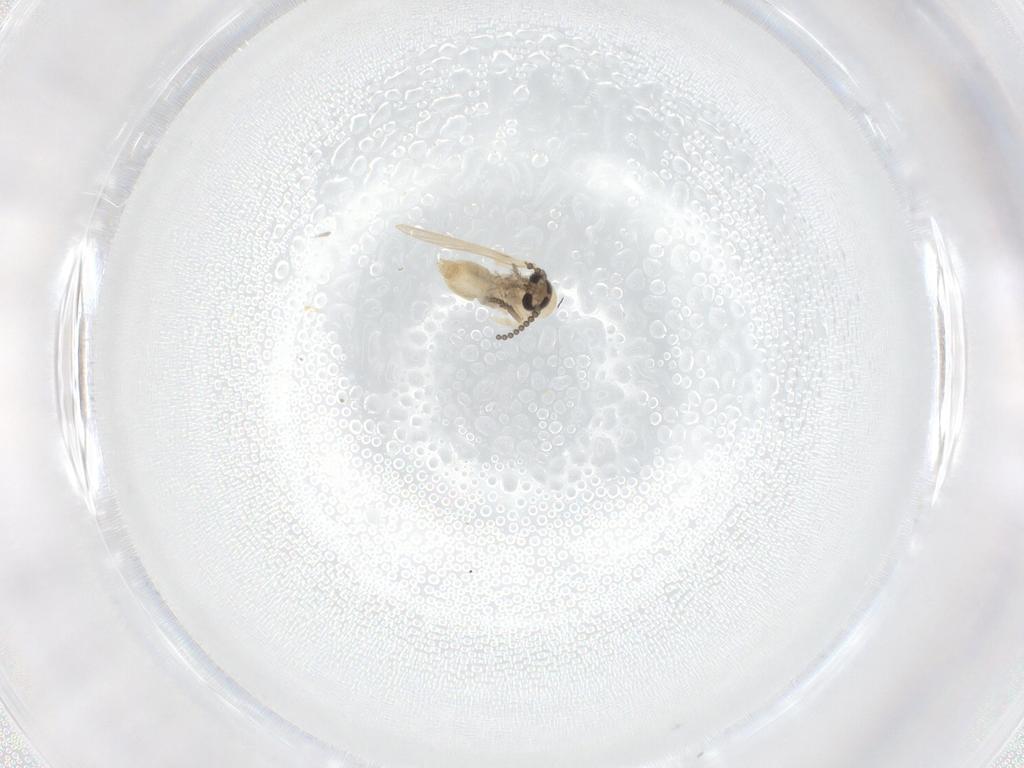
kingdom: Animalia
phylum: Arthropoda
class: Insecta
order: Diptera
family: Psychodidae
